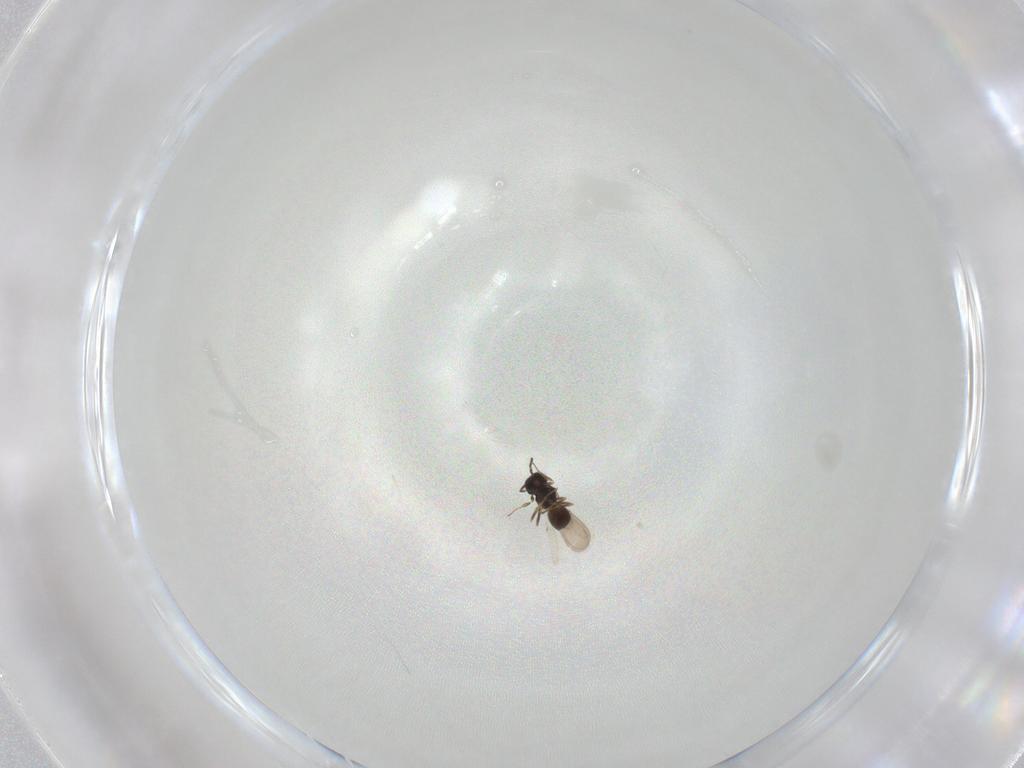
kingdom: Animalia
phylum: Arthropoda
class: Insecta
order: Hymenoptera
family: Scelionidae
